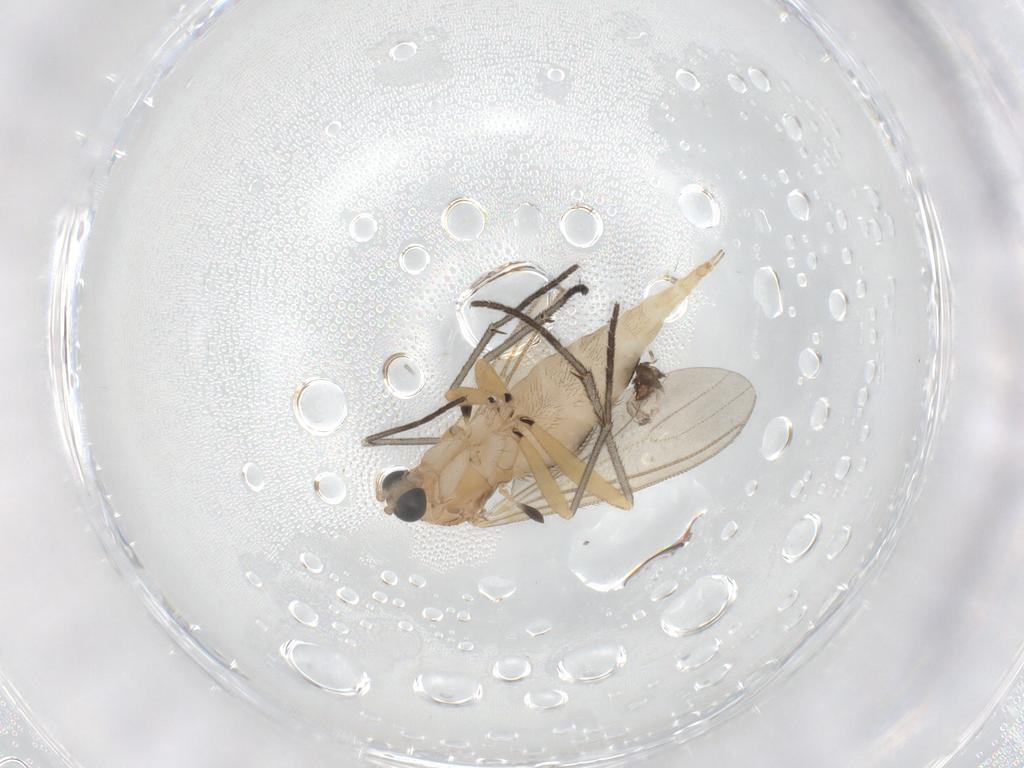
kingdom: Animalia
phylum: Arthropoda
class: Insecta
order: Diptera
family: Sciaridae
